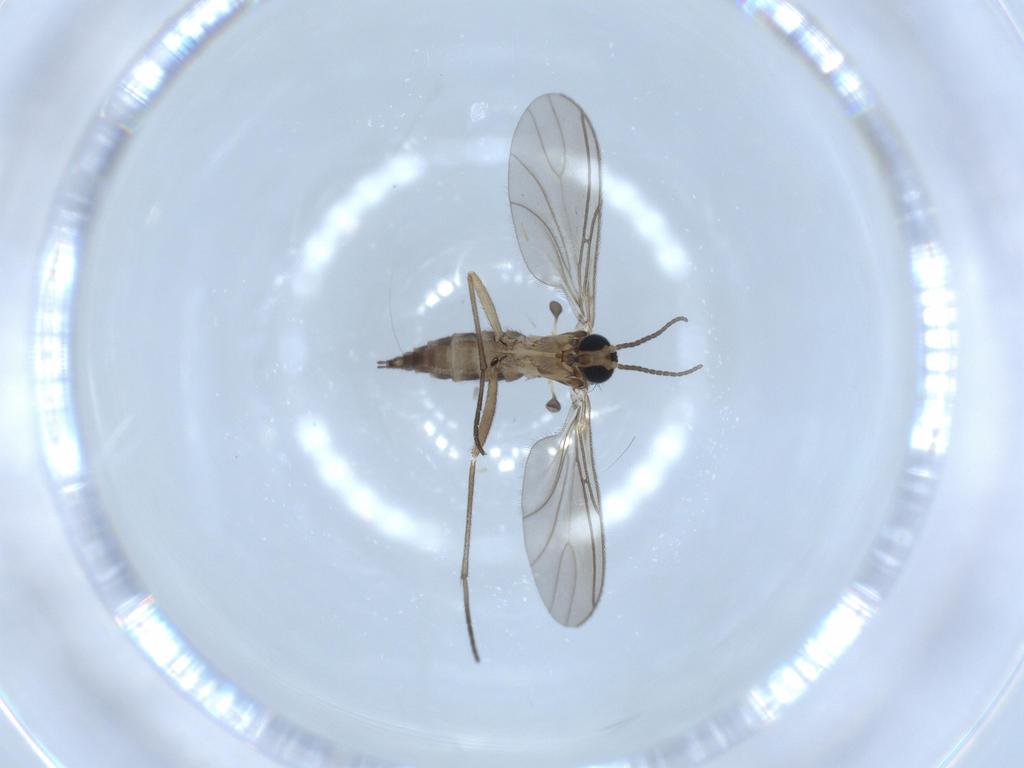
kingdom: Animalia
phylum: Arthropoda
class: Insecta
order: Diptera
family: Sciaridae
